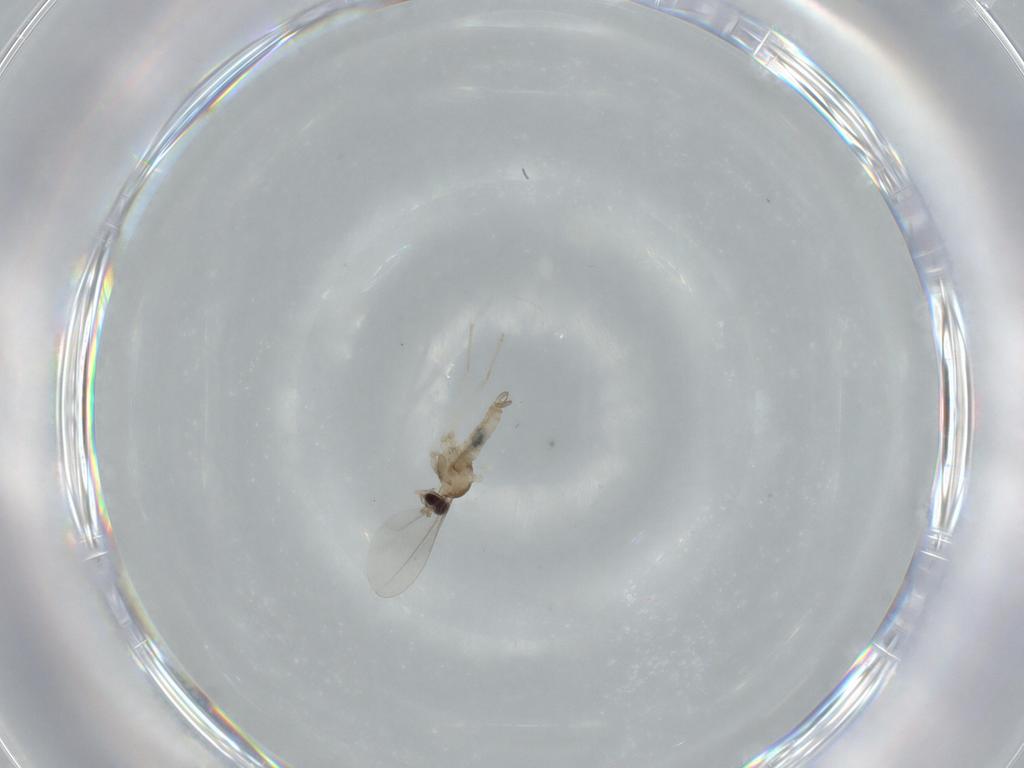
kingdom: Animalia
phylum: Arthropoda
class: Insecta
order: Diptera
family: Cecidomyiidae
